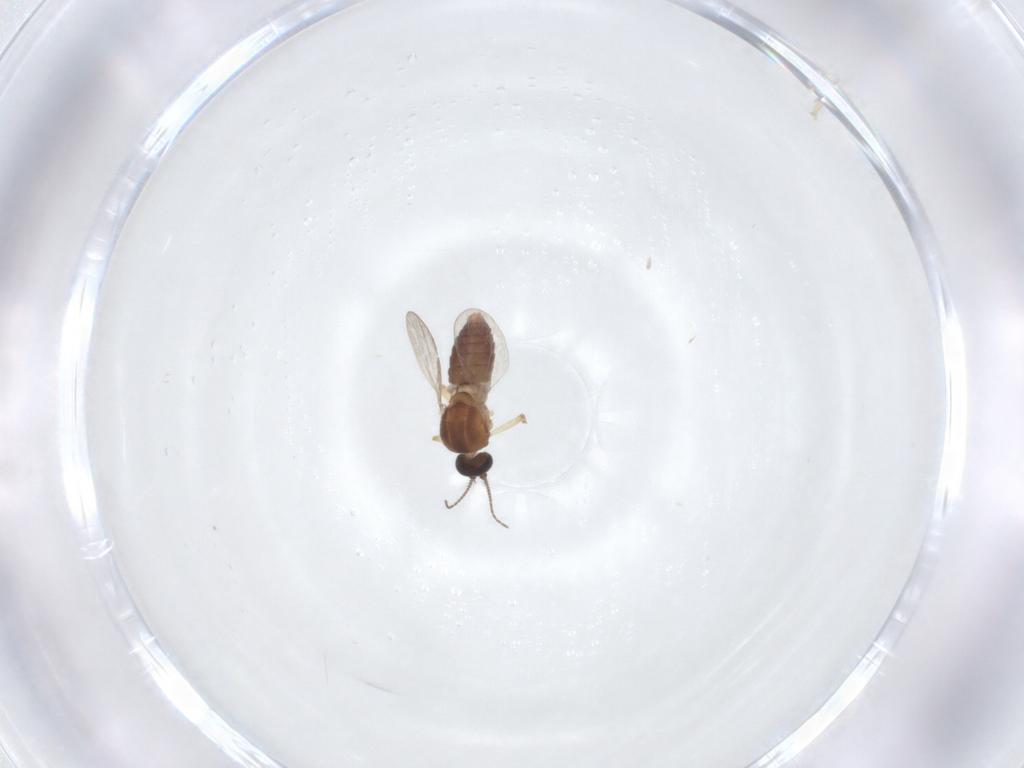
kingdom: Animalia
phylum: Arthropoda
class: Insecta
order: Diptera
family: Ceratopogonidae
